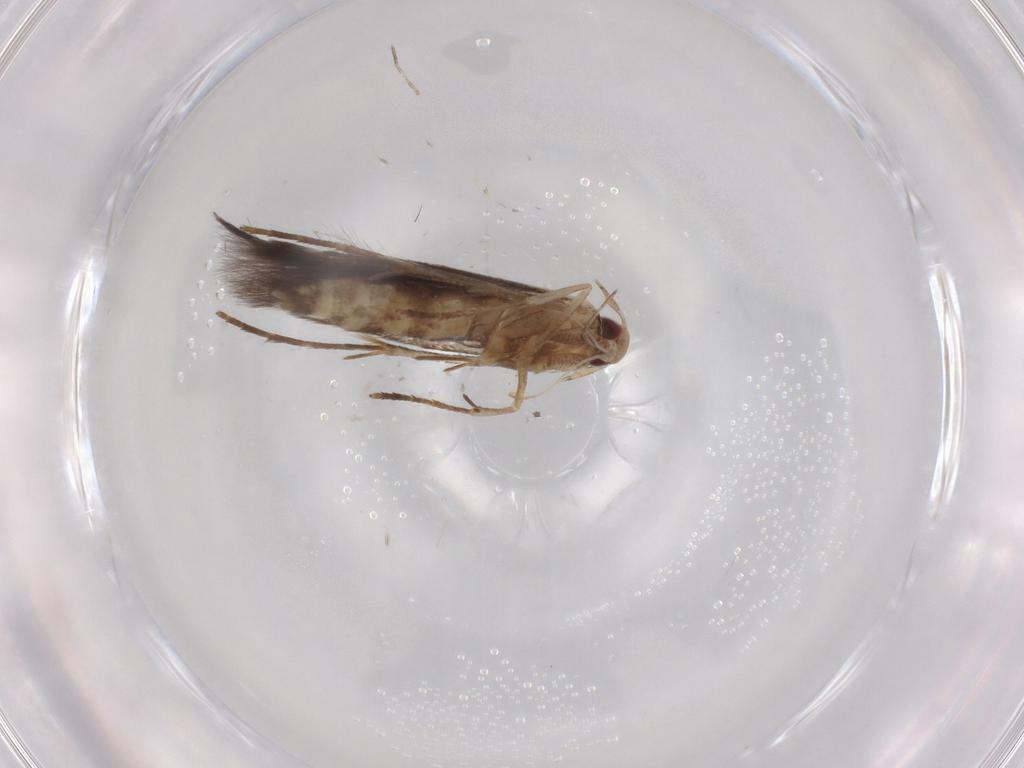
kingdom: Animalia
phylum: Arthropoda
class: Insecta
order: Lepidoptera
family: Cosmopterigidae
